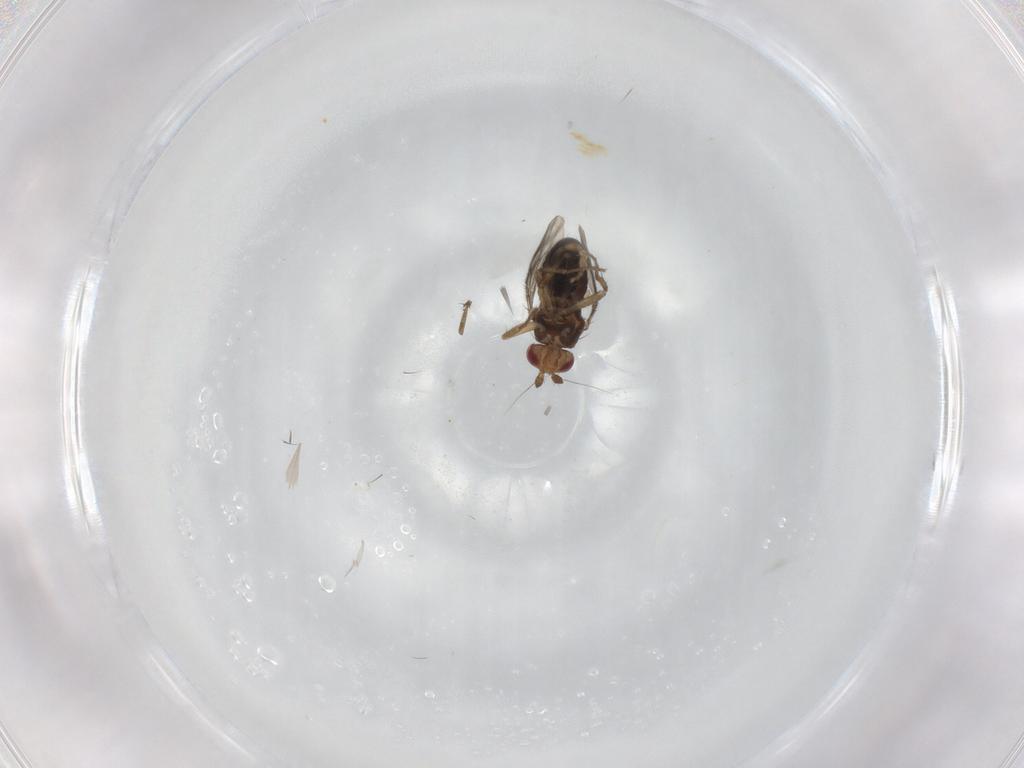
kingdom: Animalia
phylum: Arthropoda
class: Insecta
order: Diptera
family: Sphaeroceridae
